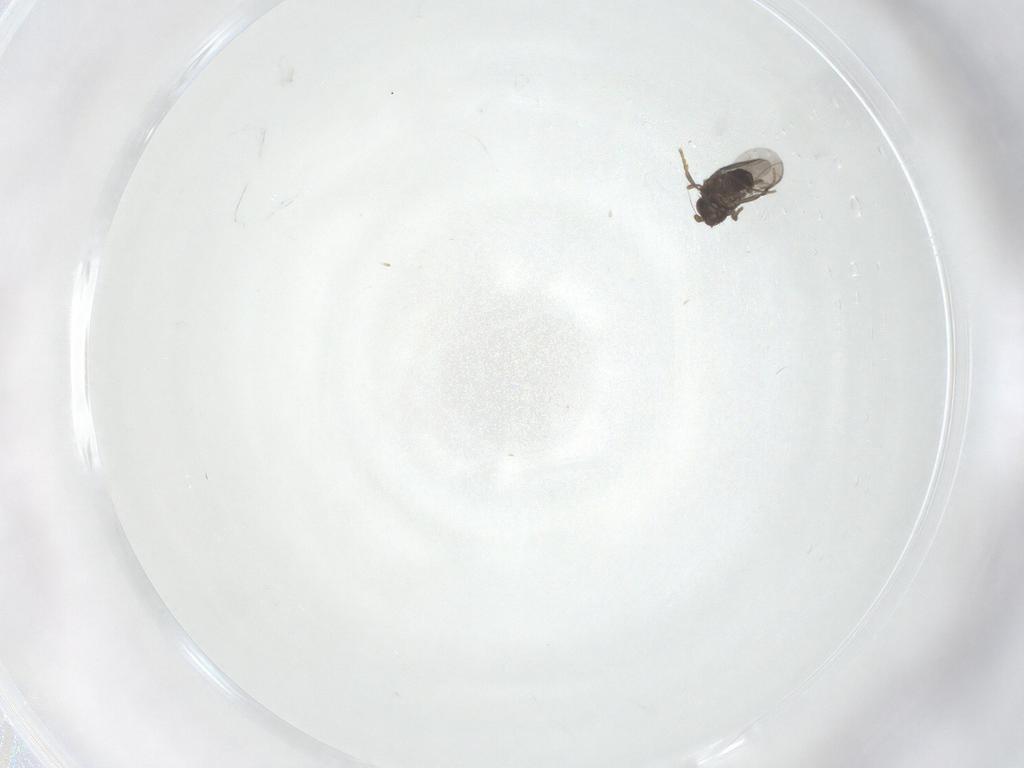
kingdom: Animalia
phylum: Arthropoda
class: Insecta
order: Diptera
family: Sphaeroceridae
